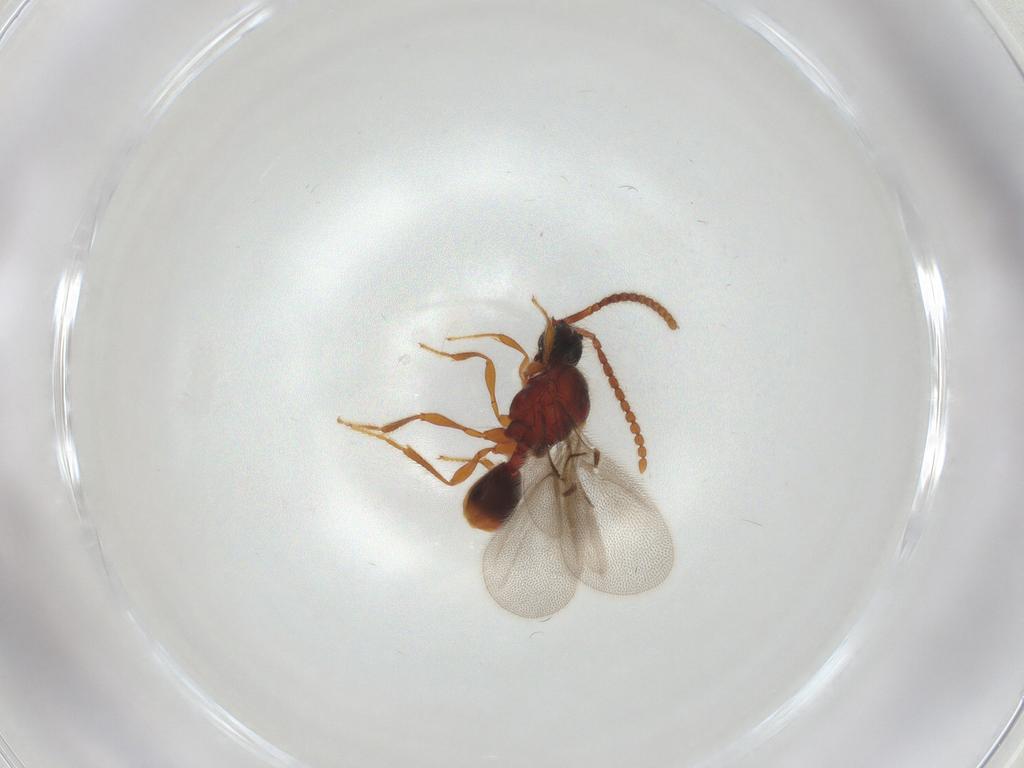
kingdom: Animalia
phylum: Arthropoda
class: Insecta
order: Hymenoptera
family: Diapriidae
